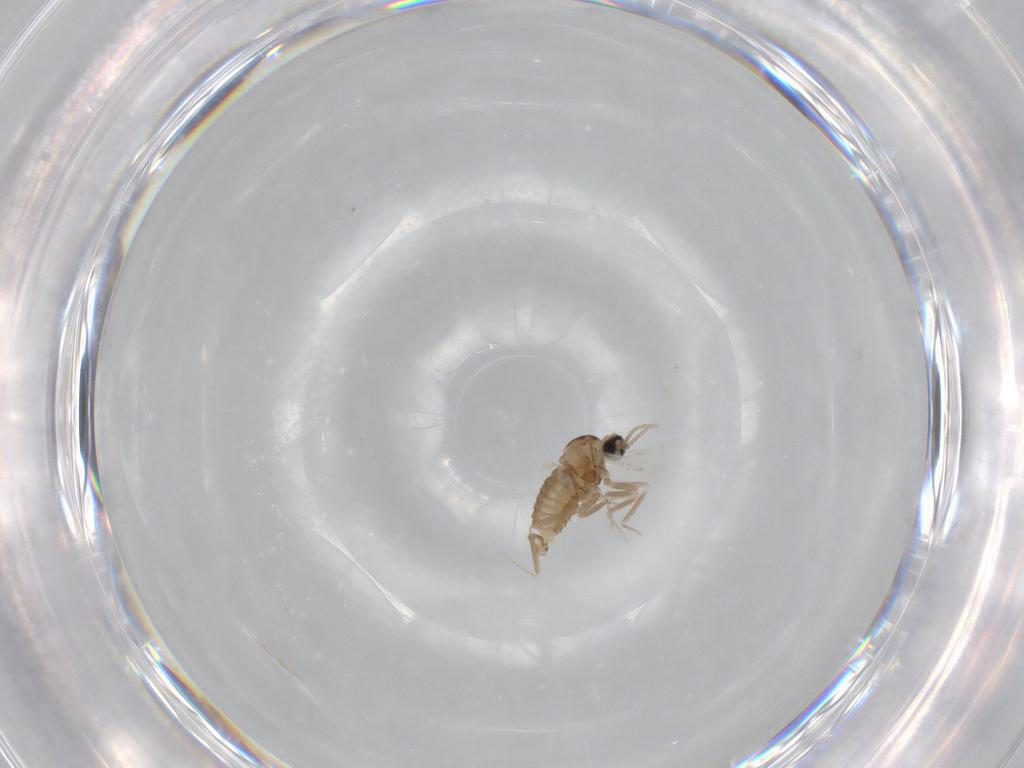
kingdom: Animalia
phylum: Arthropoda
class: Insecta
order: Diptera
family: Cecidomyiidae
